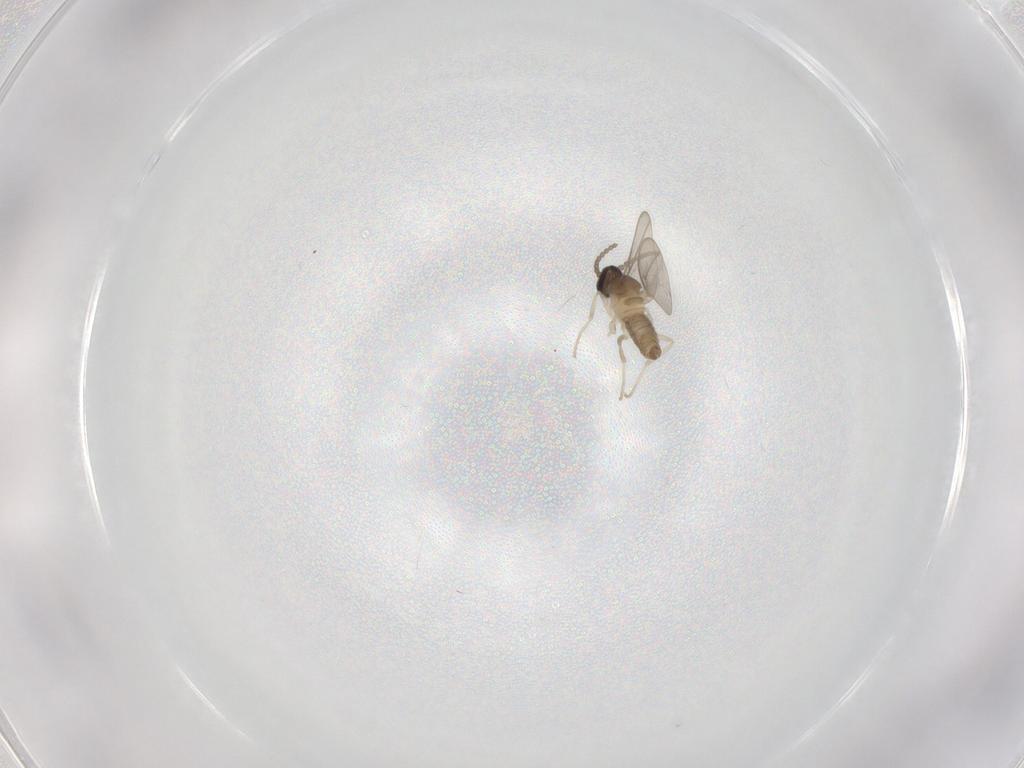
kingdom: Animalia
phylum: Arthropoda
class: Insecta
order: Diptera
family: Cecidomyiidae
